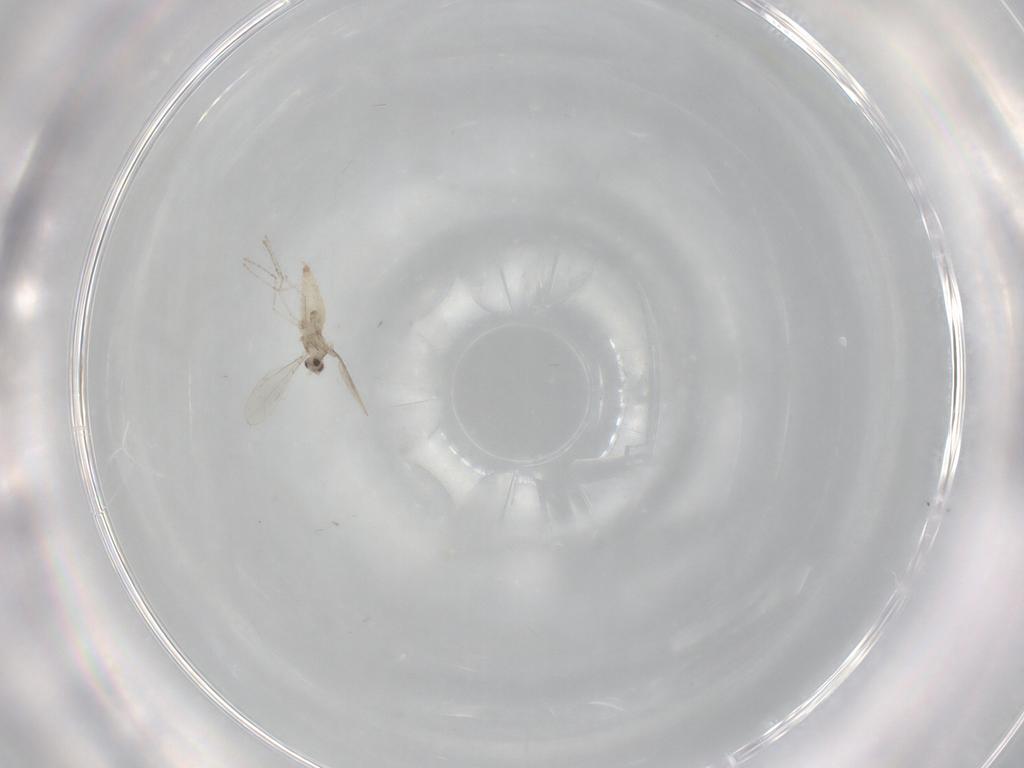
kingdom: Animalia
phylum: Arthropoda
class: Insecta
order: Diptera
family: Cecidomyiidae
